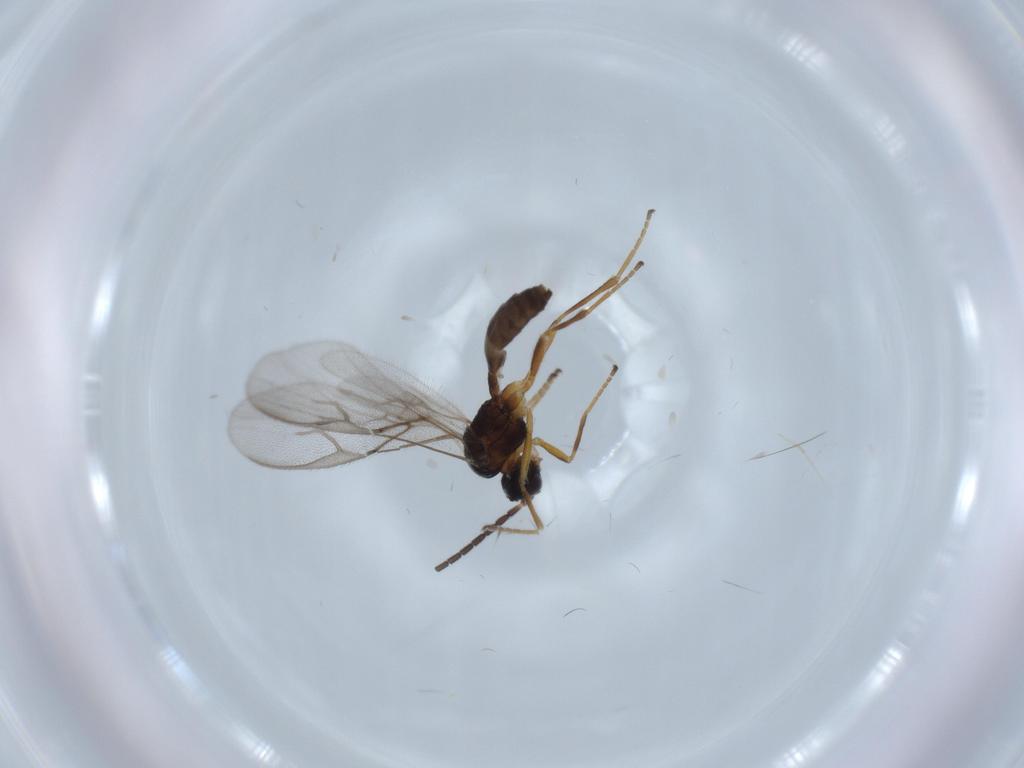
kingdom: Animalia
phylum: Arthropoda
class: Insecta
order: Hymenoptera
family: Braconidae
